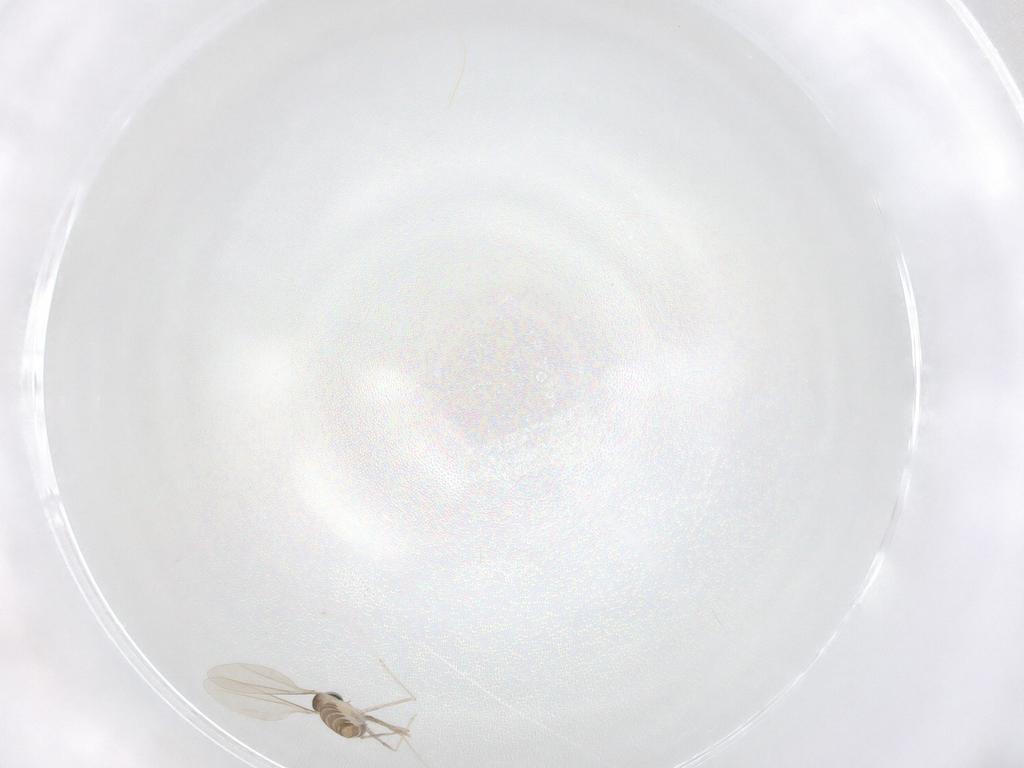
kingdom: Animalia
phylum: Arthropoda
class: Insecta
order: Diptera
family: Cecidomyiidae
